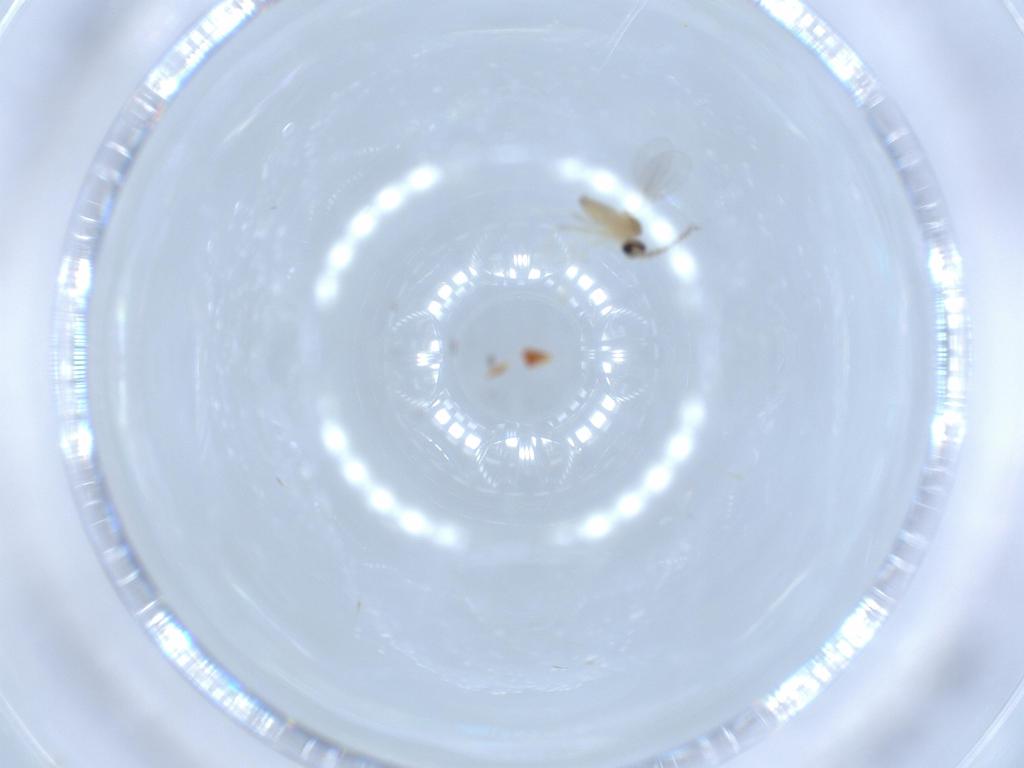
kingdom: Animalia
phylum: Arthropoda
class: Insecta
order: Diptera
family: Cecidomyiidae
